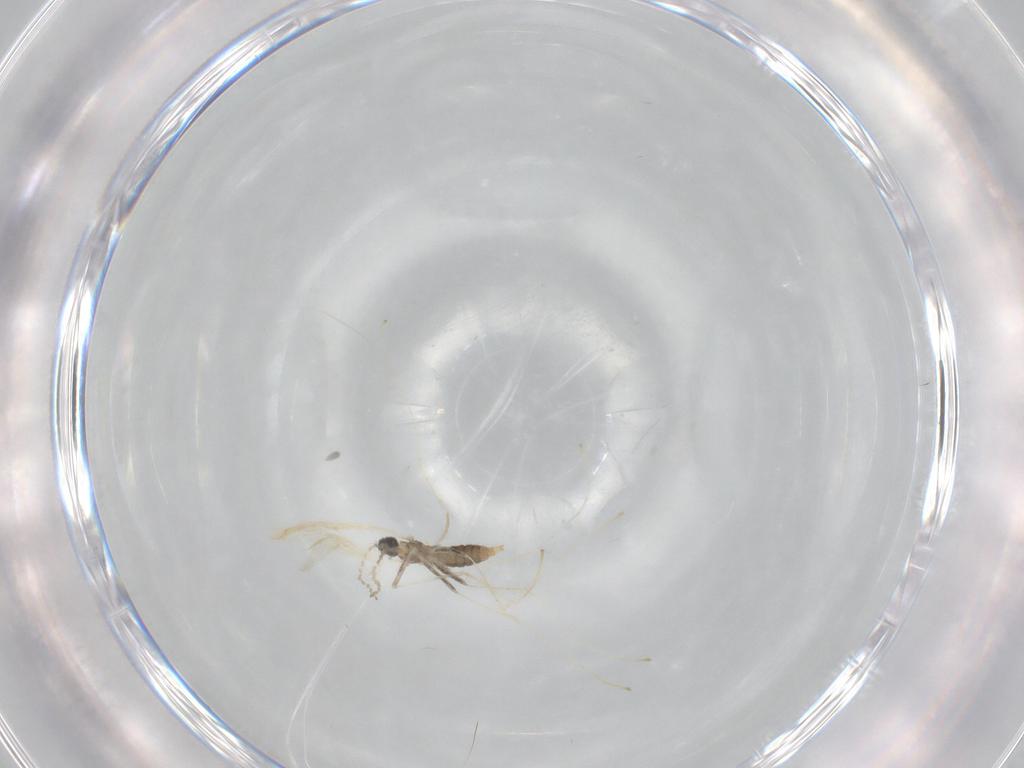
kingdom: Animalia
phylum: Arthropoda
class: Insecta
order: Diptera
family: Cecidomyiidae
